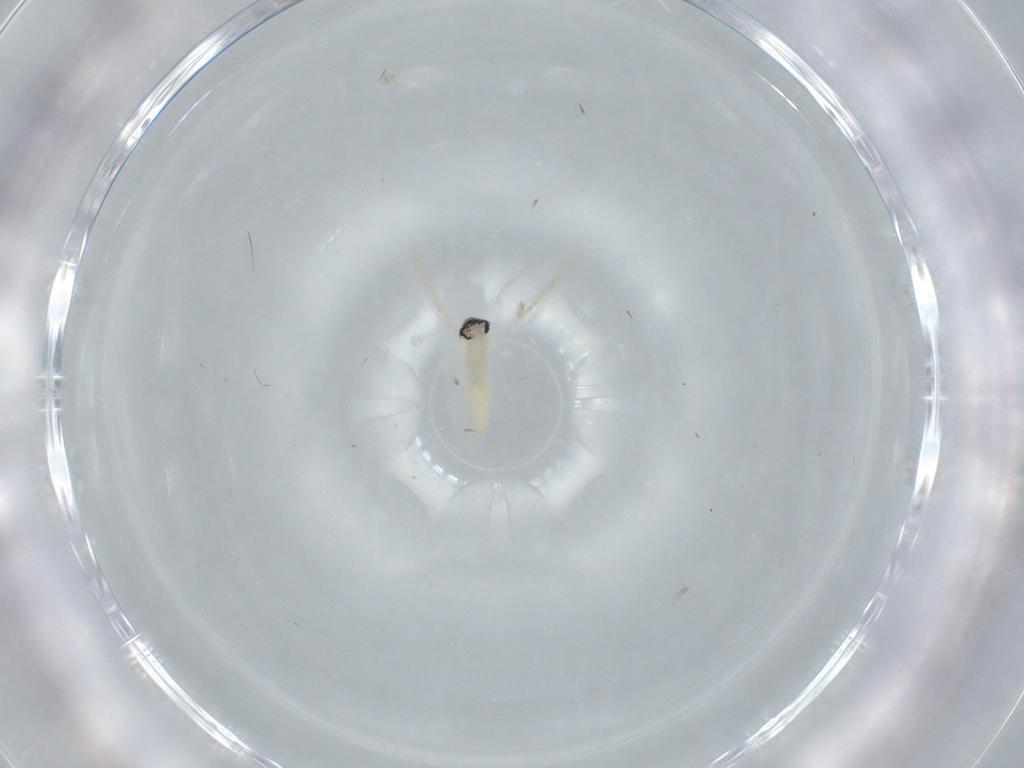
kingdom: Animalia
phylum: Arthropoda
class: Insecta
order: Diptera
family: Cecidomyiidae
